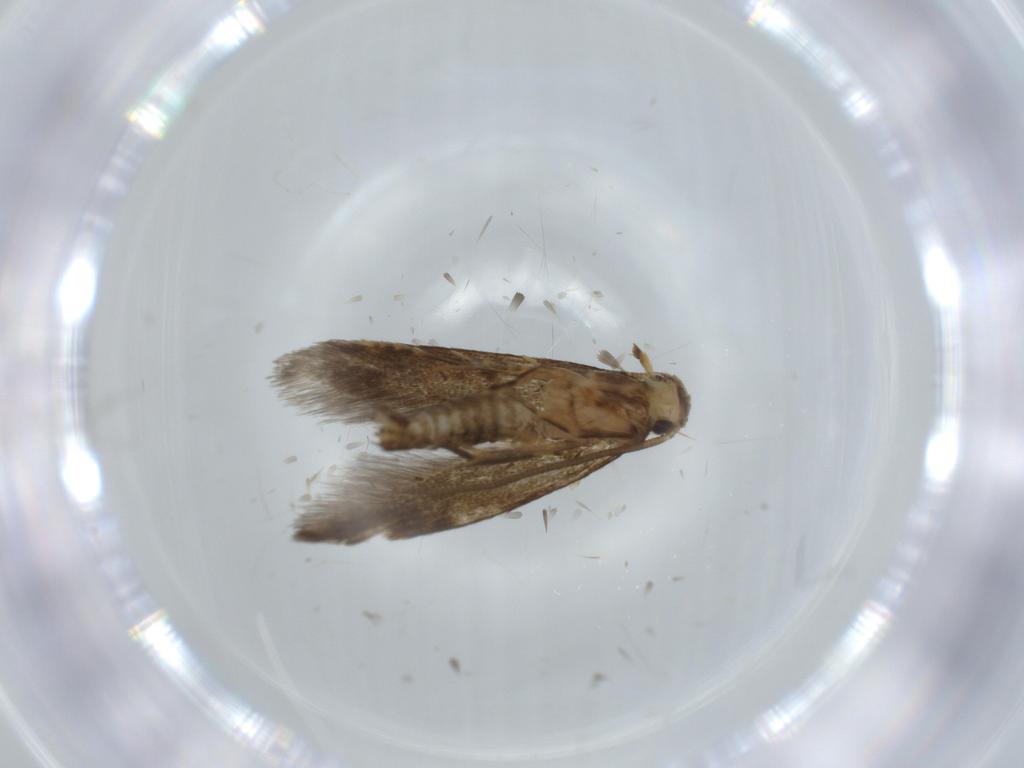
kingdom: Animalia
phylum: Arthropoda
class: Insecta
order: Lepidoptera
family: Tineidae
